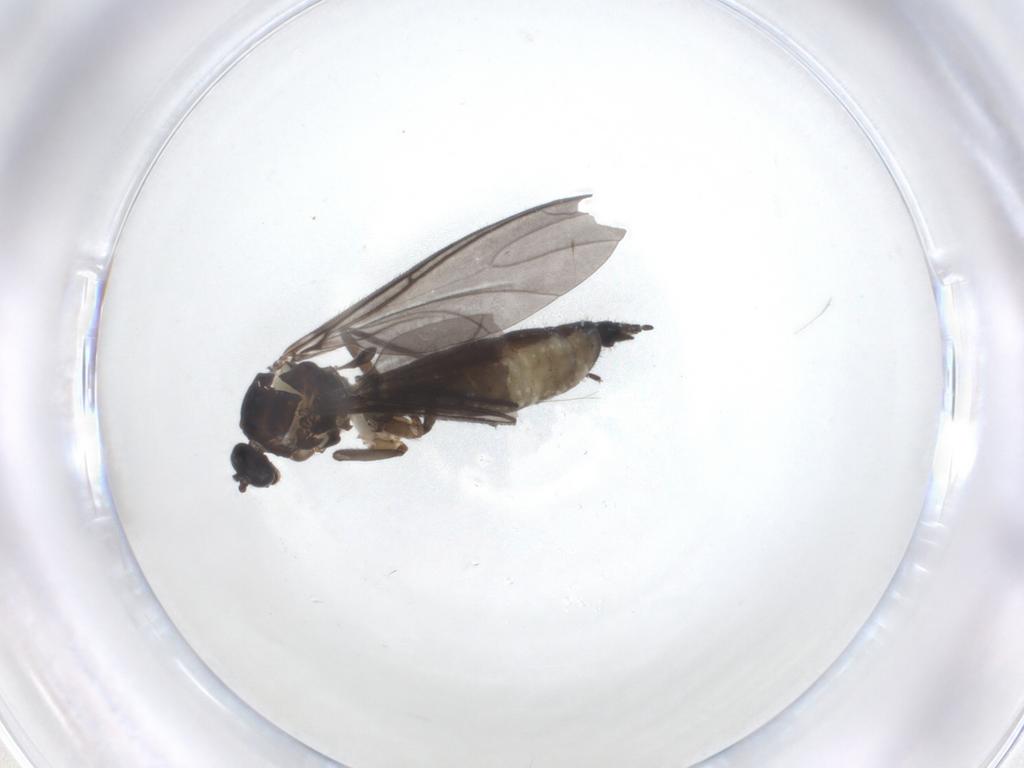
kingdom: Animalia
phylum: Arthropoda
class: Insecta
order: Diptera
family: Sciaridae
